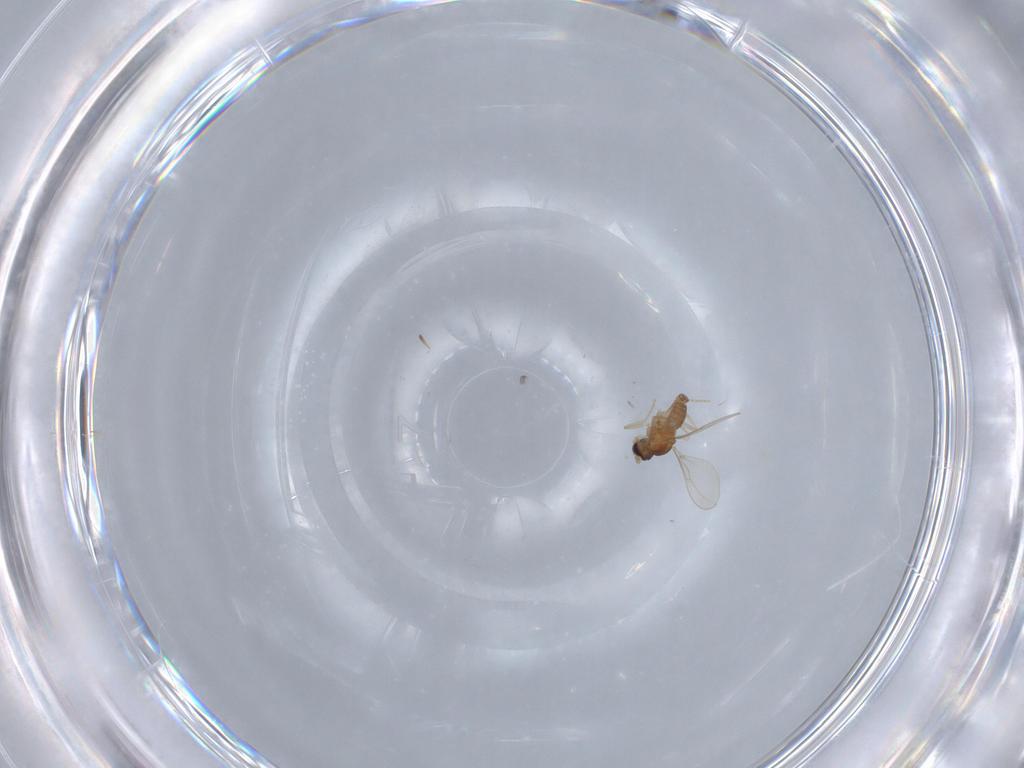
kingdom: Animalia
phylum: Arthropoda
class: Insecta
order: Diptera
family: Cecidomyiidae
